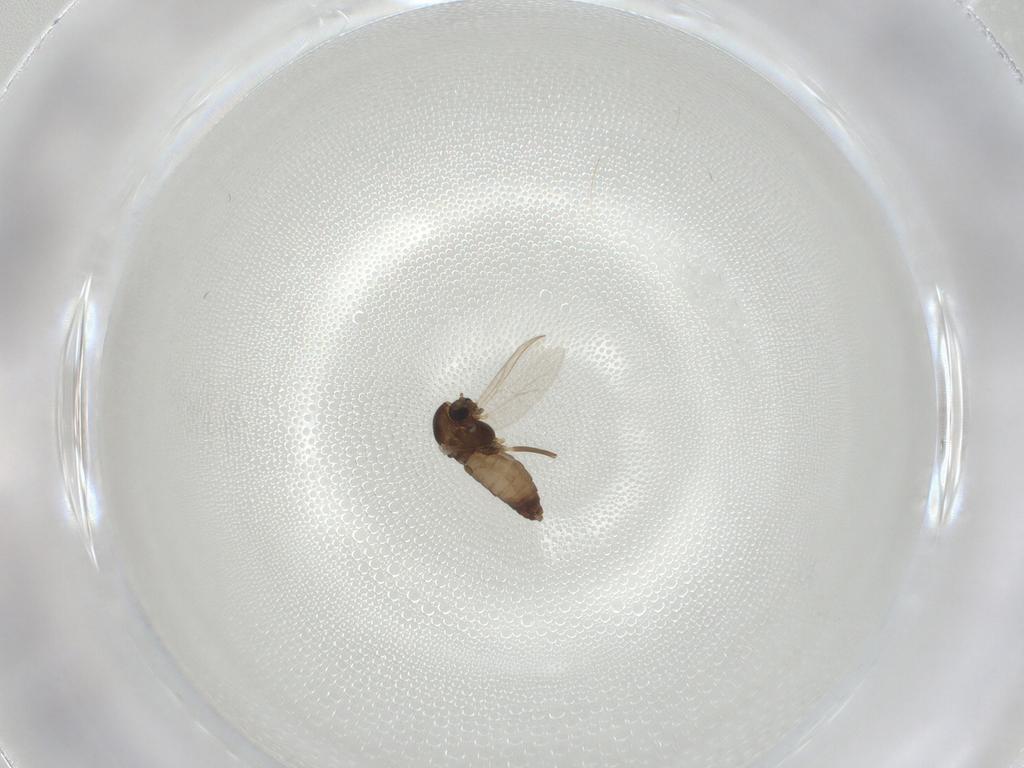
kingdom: Animalia
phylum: Arthropoda
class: Insecta
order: Diptera
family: Chironomidae
